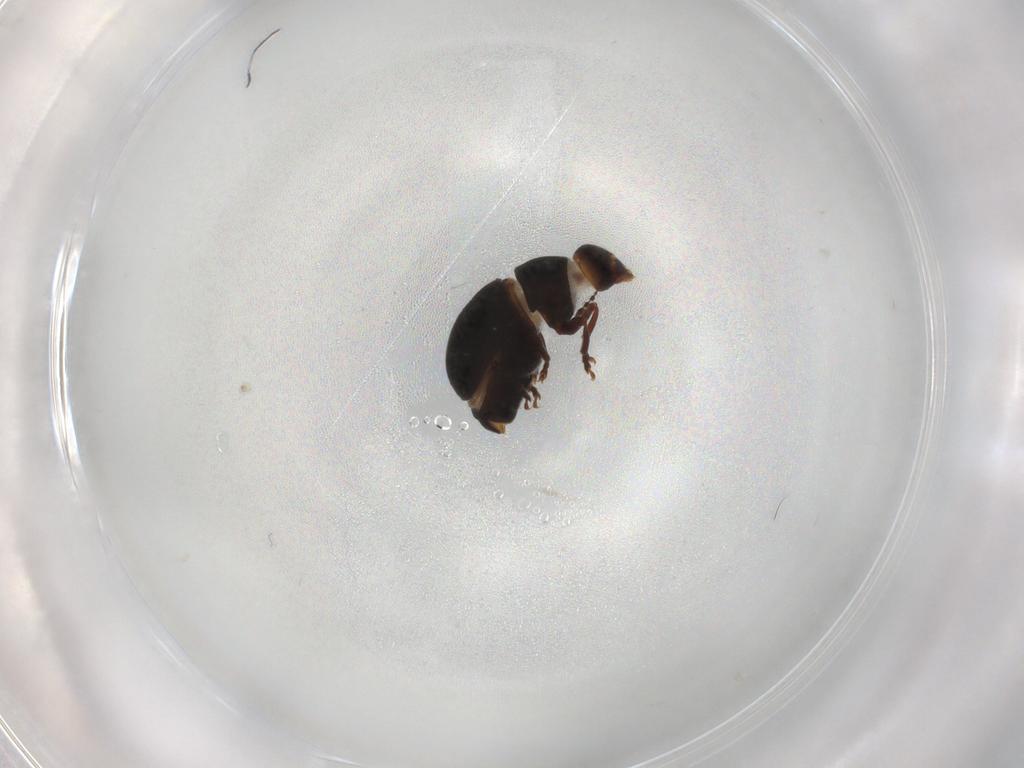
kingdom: Animalia
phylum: Arthropoda
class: Insecta
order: Coleoptera
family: Anthribidae
